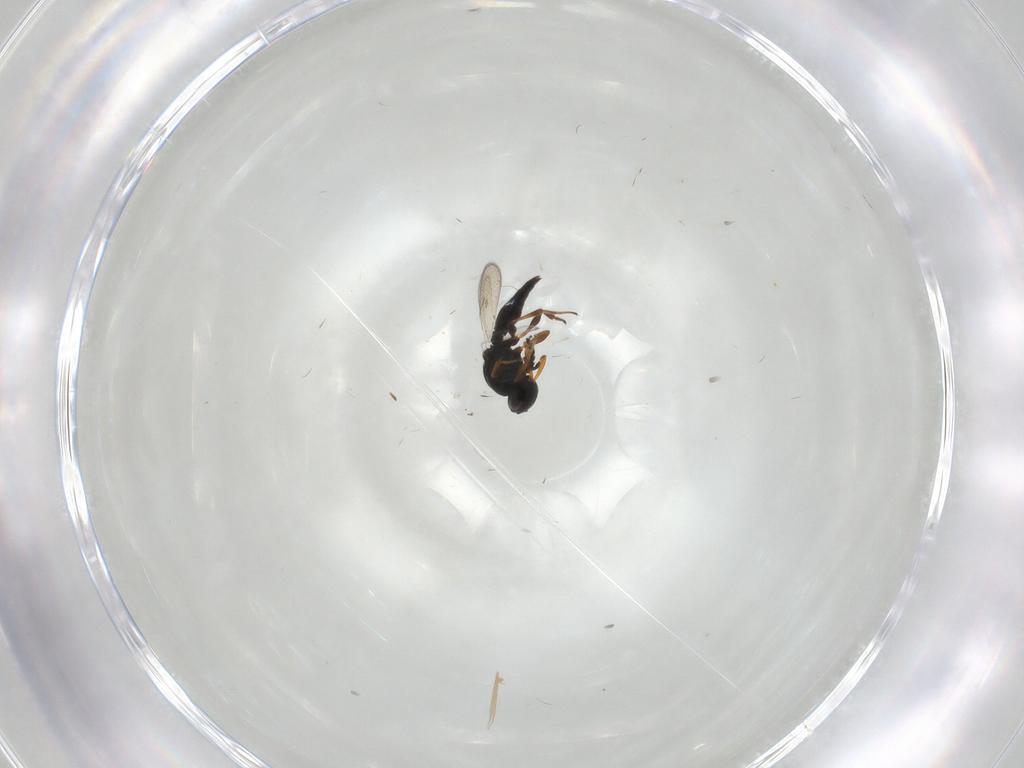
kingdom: Animalia
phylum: Arthropoda
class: Insecta
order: Hymenoptera
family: Platygastridae
